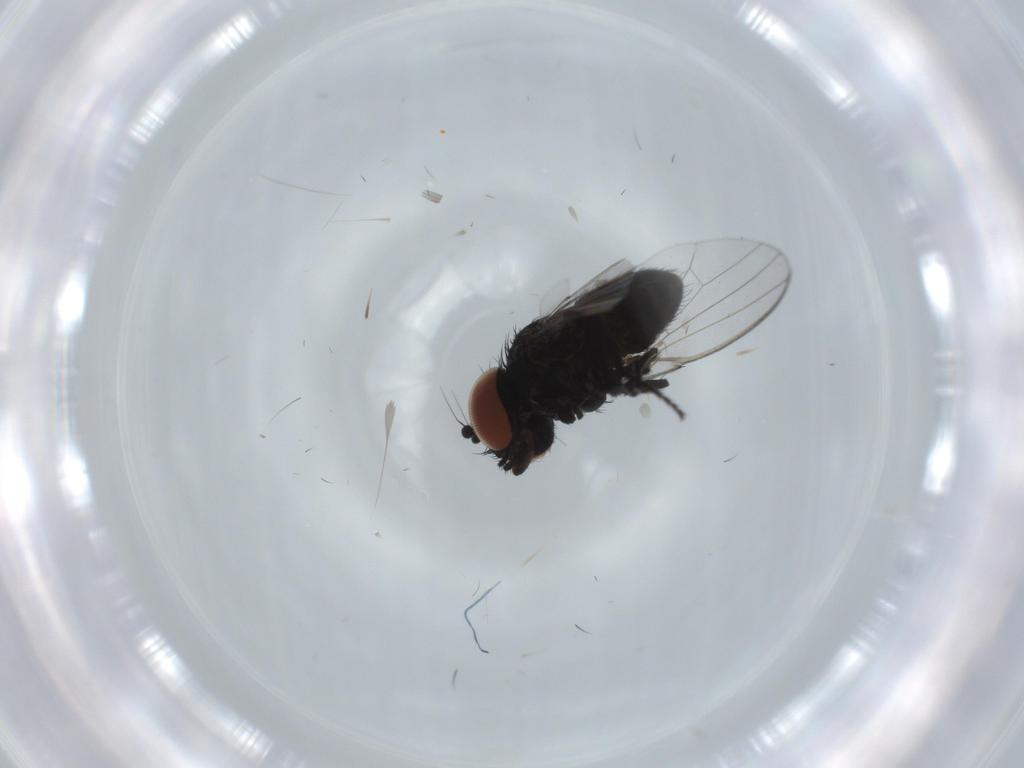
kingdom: Animalia
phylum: Arthropoda
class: Insecta
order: Diptera
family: Milichiidae
